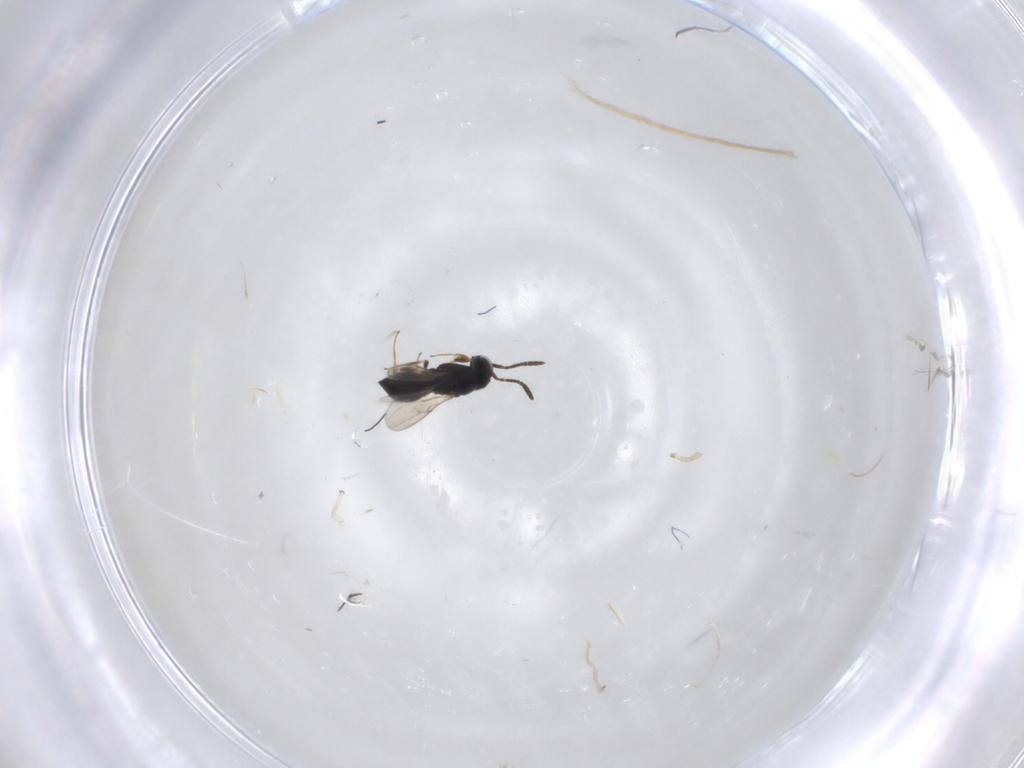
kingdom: Animalia
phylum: Arthropoda
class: Insecta
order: Hymenoptera
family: Scelionidae
